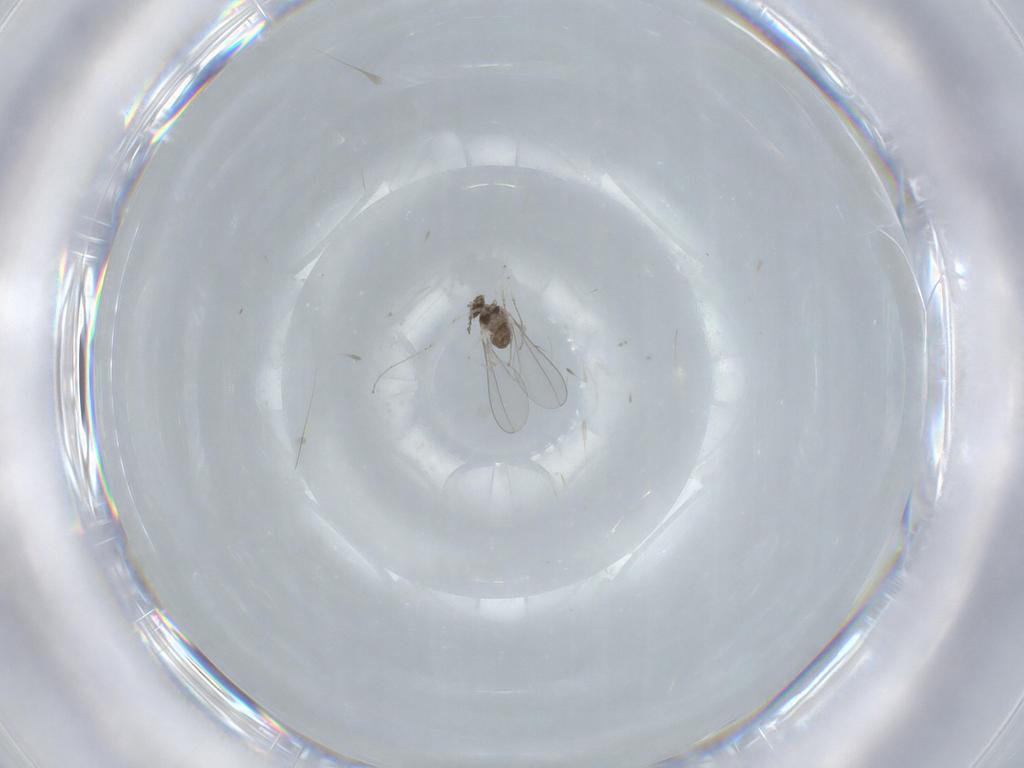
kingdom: Animalia
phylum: Arthropoda
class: Insecta
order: Diptera
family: Cecidomyiidae
